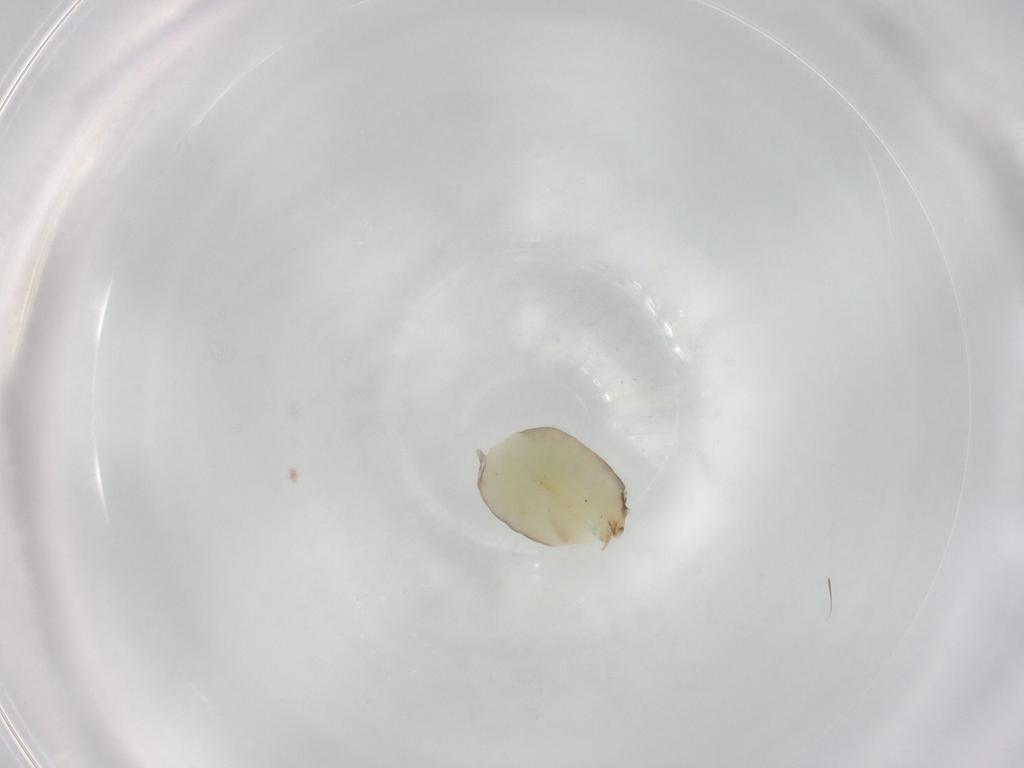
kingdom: Animalia
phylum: Arthropoda
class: Insecta
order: Hymenoptera
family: Dryinidae
